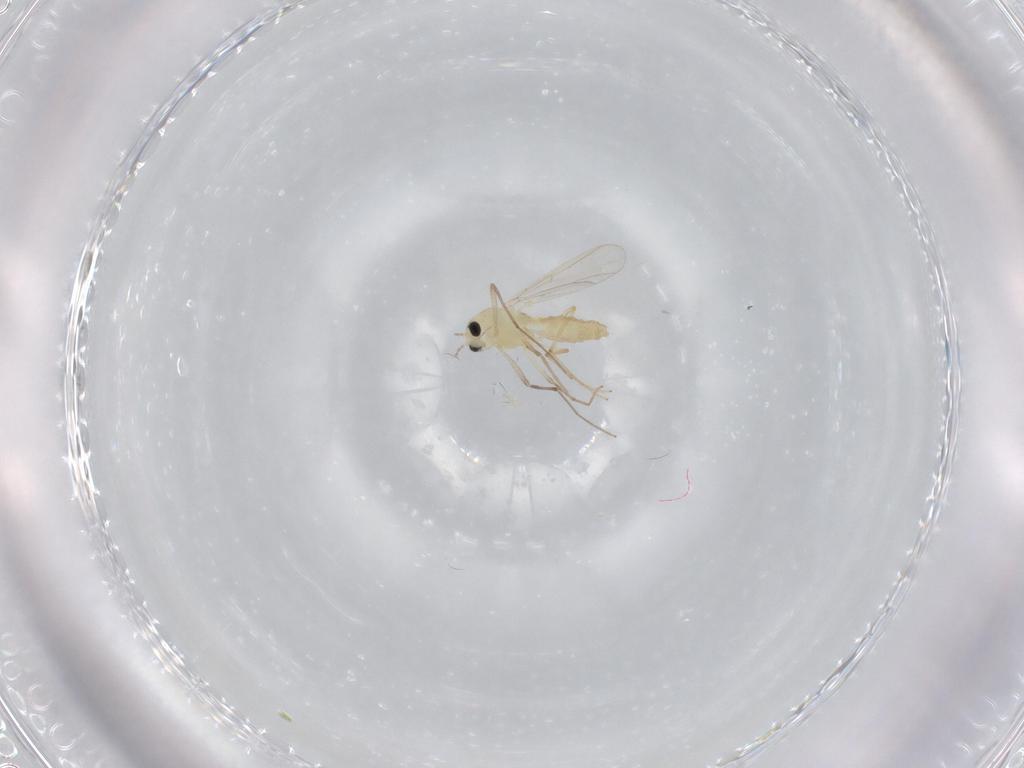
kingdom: Animalia
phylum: Arthropoda
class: Insecta
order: Diptera
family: Chironomidae
